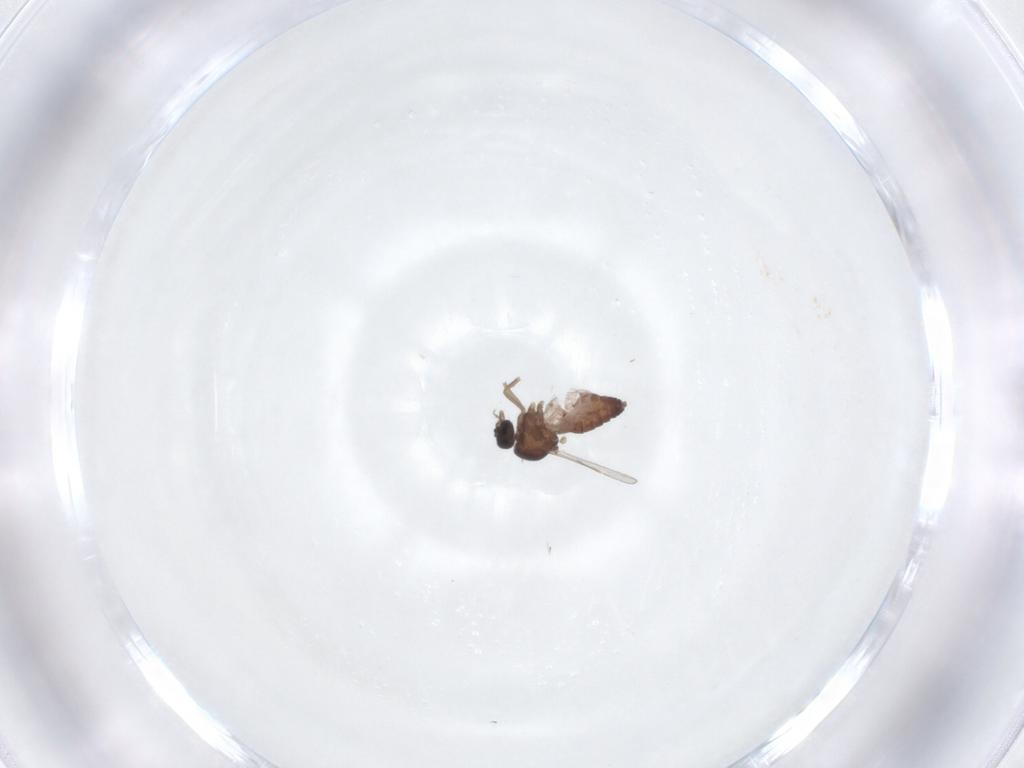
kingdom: Animalia
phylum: Arthropoda
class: Insecta
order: Diptera
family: Ceratopogonidae
